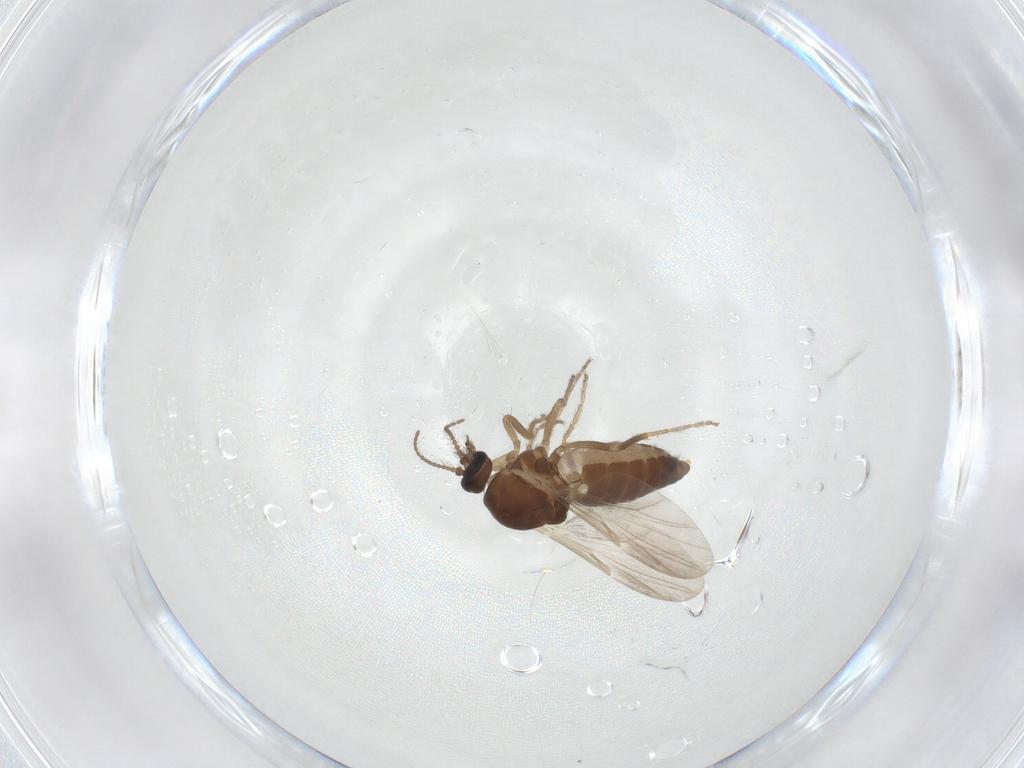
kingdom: Animalia
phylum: Arthropoda
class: Insecta
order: Diptera
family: Ceratopogonidae
